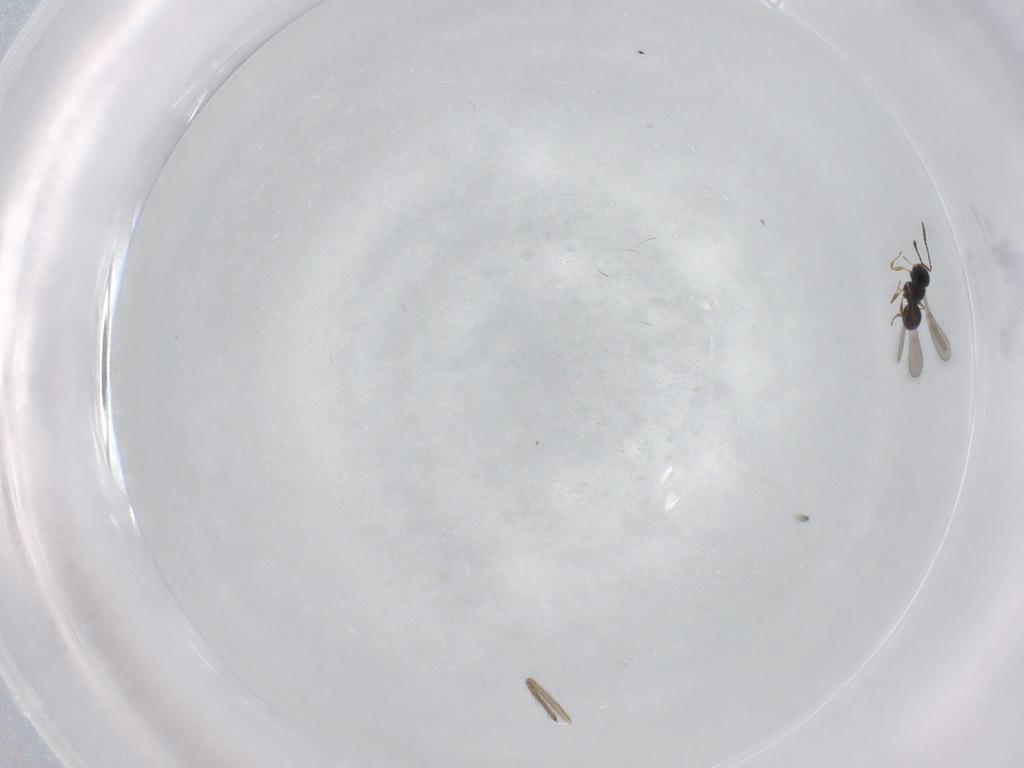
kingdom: Animalia
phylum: Arthropoda
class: Insecta
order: Hymenoptera
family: Scelionidae
